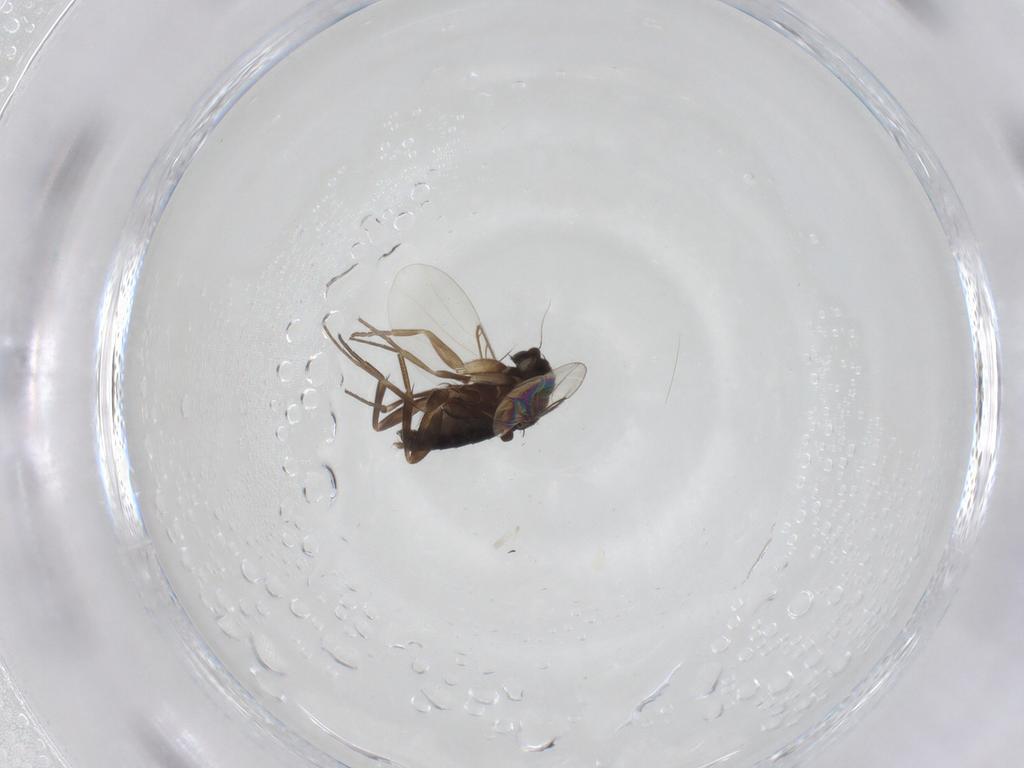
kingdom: Animalia
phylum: Arthropoda
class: Insecta
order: Diptera
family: Phoridae
